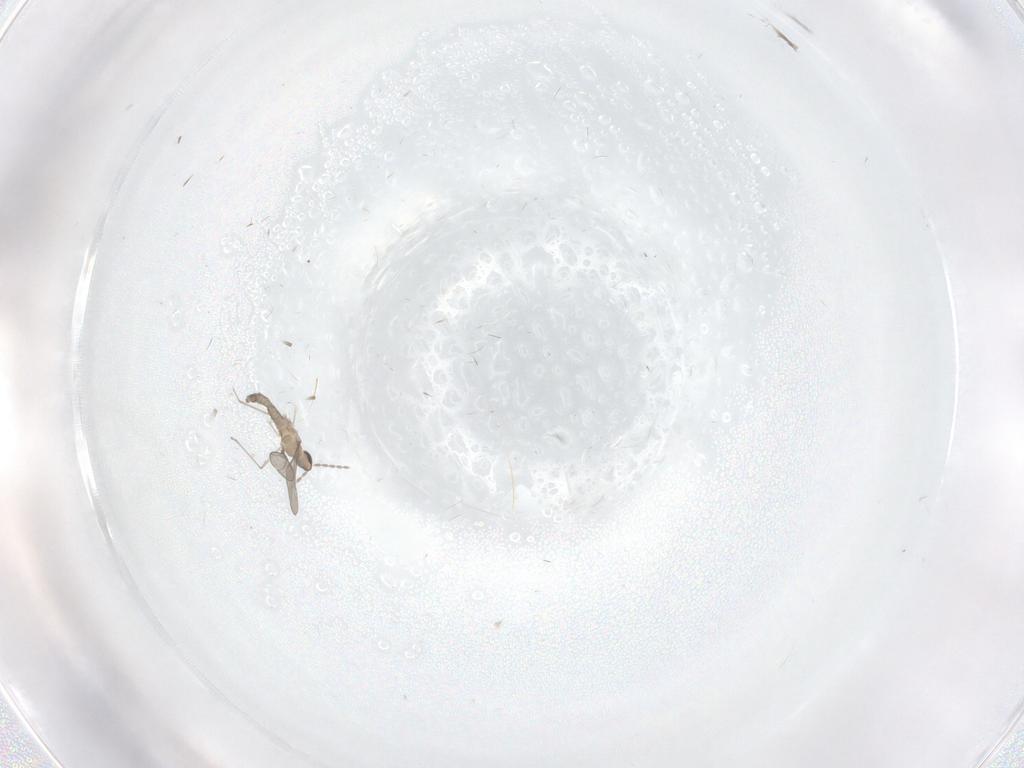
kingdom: Animalia
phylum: Arthropoda
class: Insecta
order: Diptera
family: Cecidomyiidae
